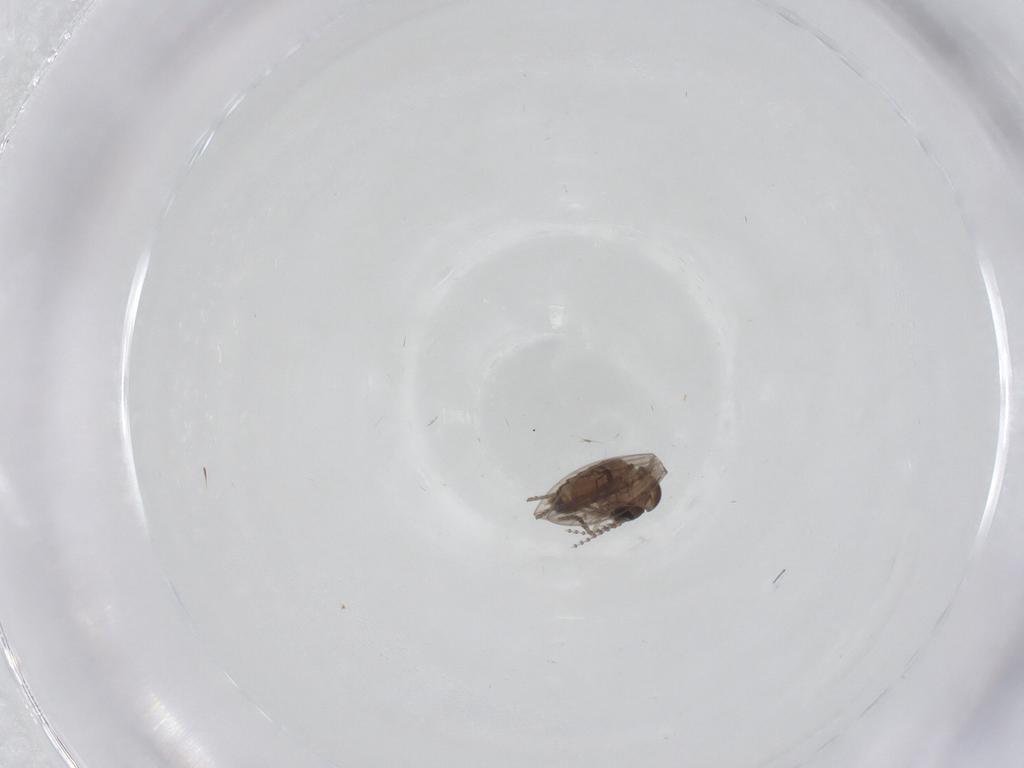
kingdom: Animalia
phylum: Arthropoda
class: Insecta
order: Diptera
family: Psychodidae
